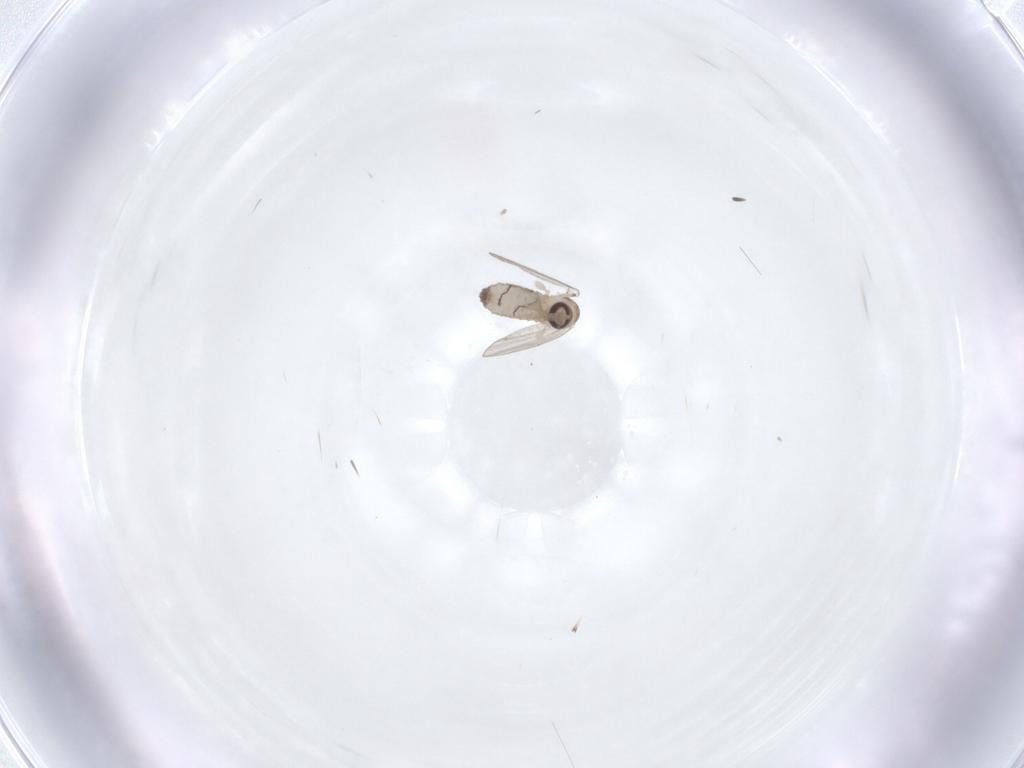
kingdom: Animalia
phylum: Arthropoda
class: Insecta
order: Diptera
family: Psychodidae
